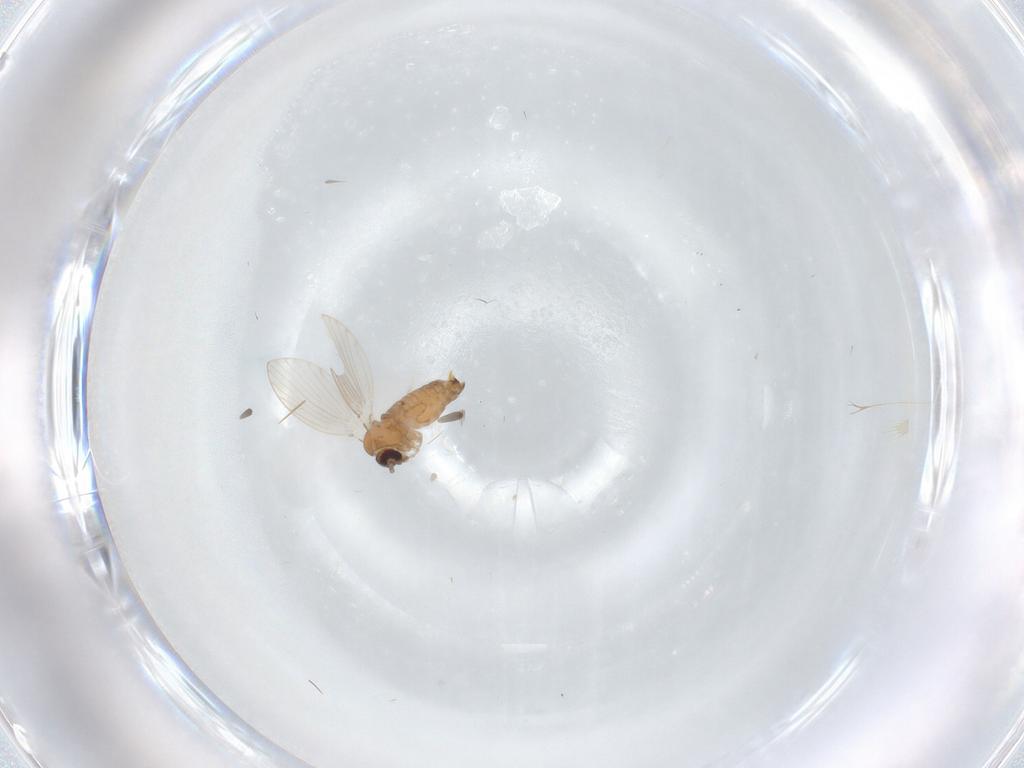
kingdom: Animalia
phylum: Arthropoda
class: Insecta
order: Diptera
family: Psychodidae
